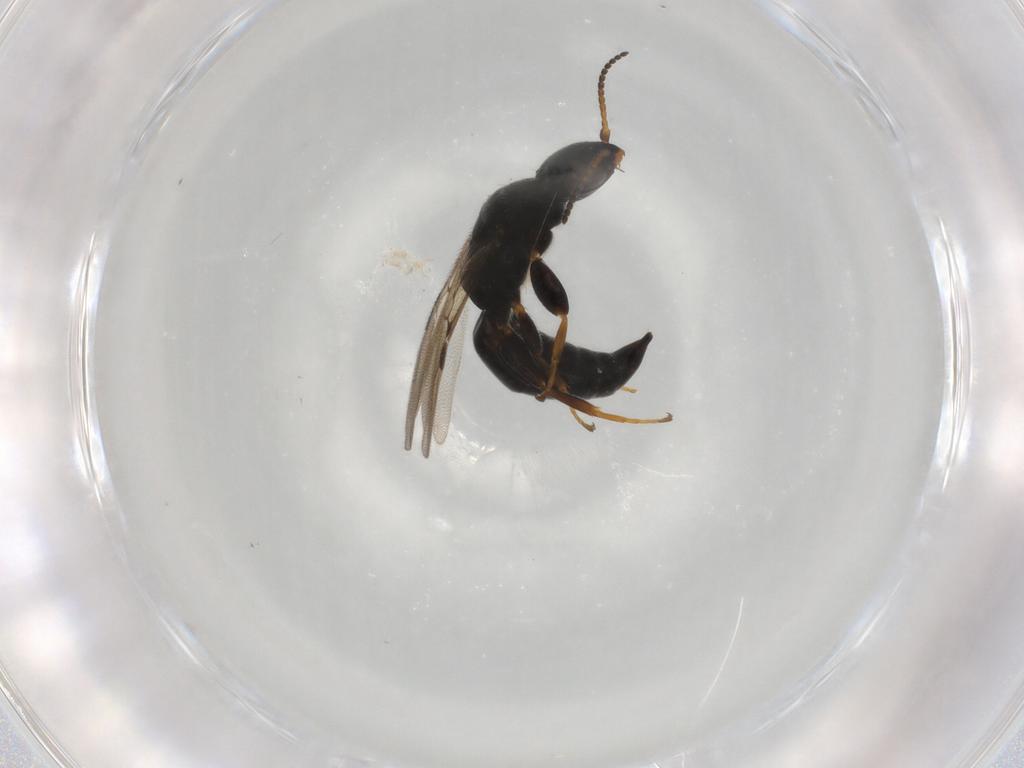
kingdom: Animalia
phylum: Arthropoda
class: Insecta
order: Hymenoptera
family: Bethylidae
